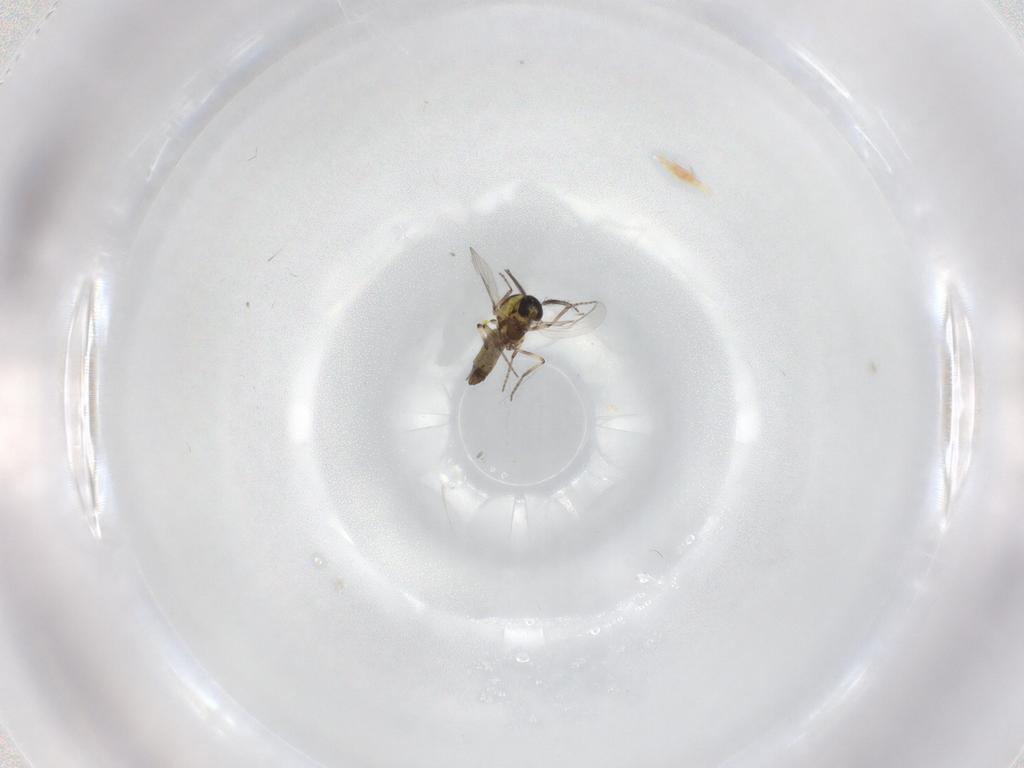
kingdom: Animalia
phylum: Arthropoda
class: Insecta
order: Diptera
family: Ceratopogonidae
